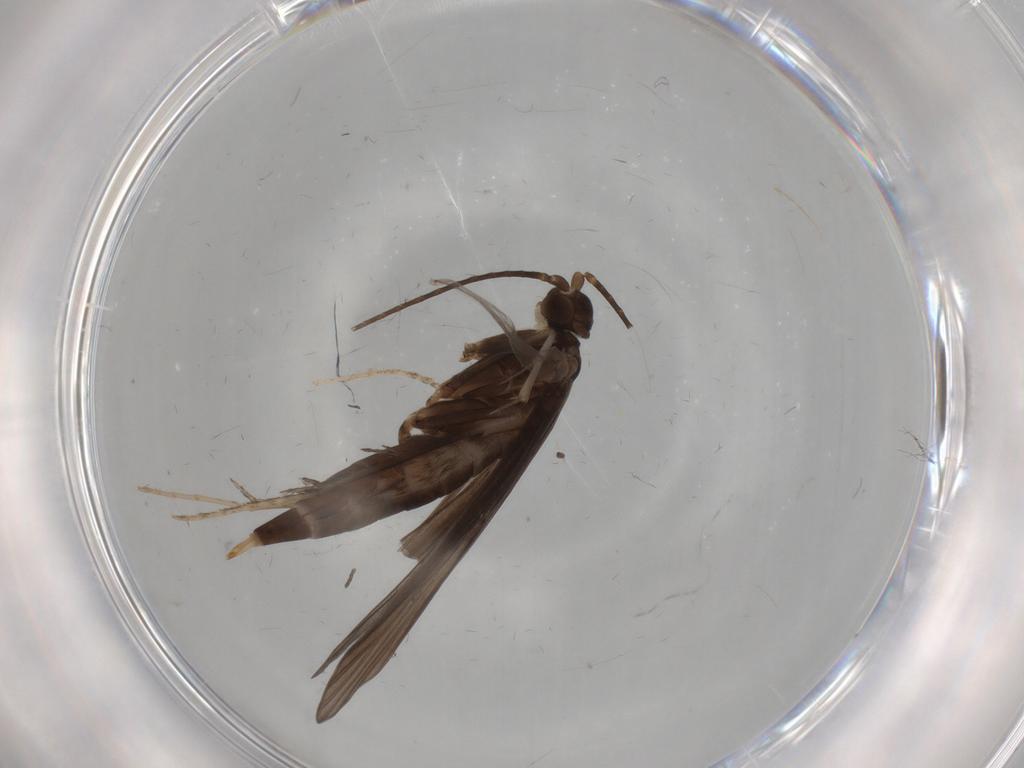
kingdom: Animalia
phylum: Arthropoda
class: Insecta
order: Trichoptera
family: Xiphocentronidae
